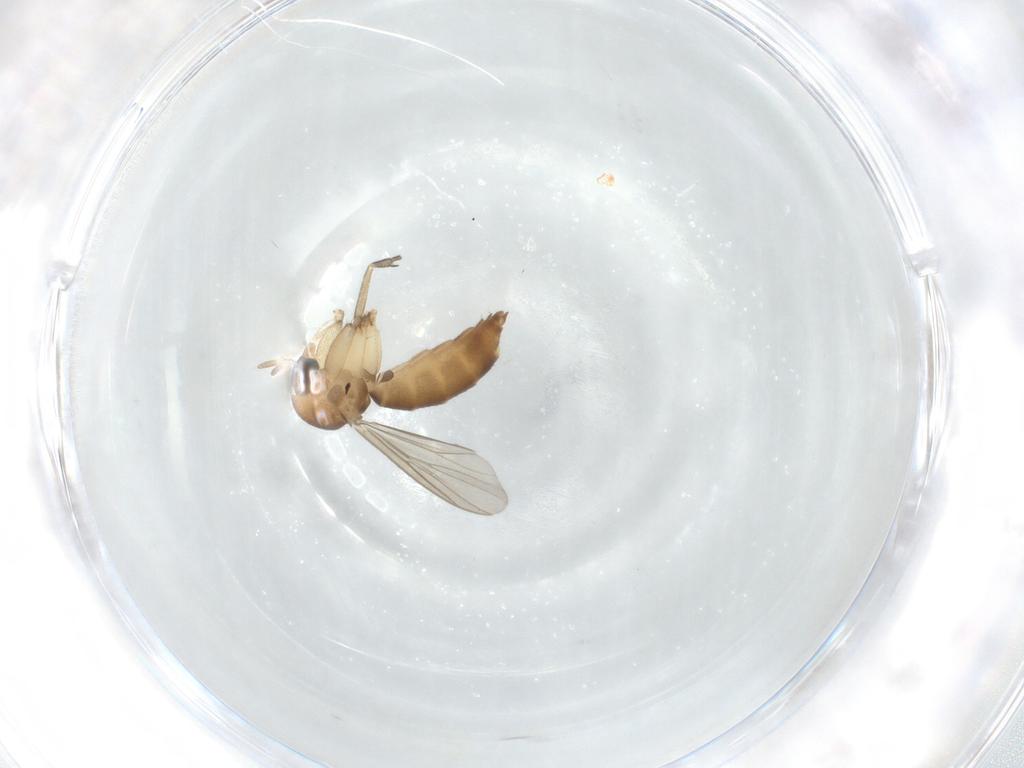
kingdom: Animalia
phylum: Arthropoda
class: Insecta
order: Diptera
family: Mycetophilidae
